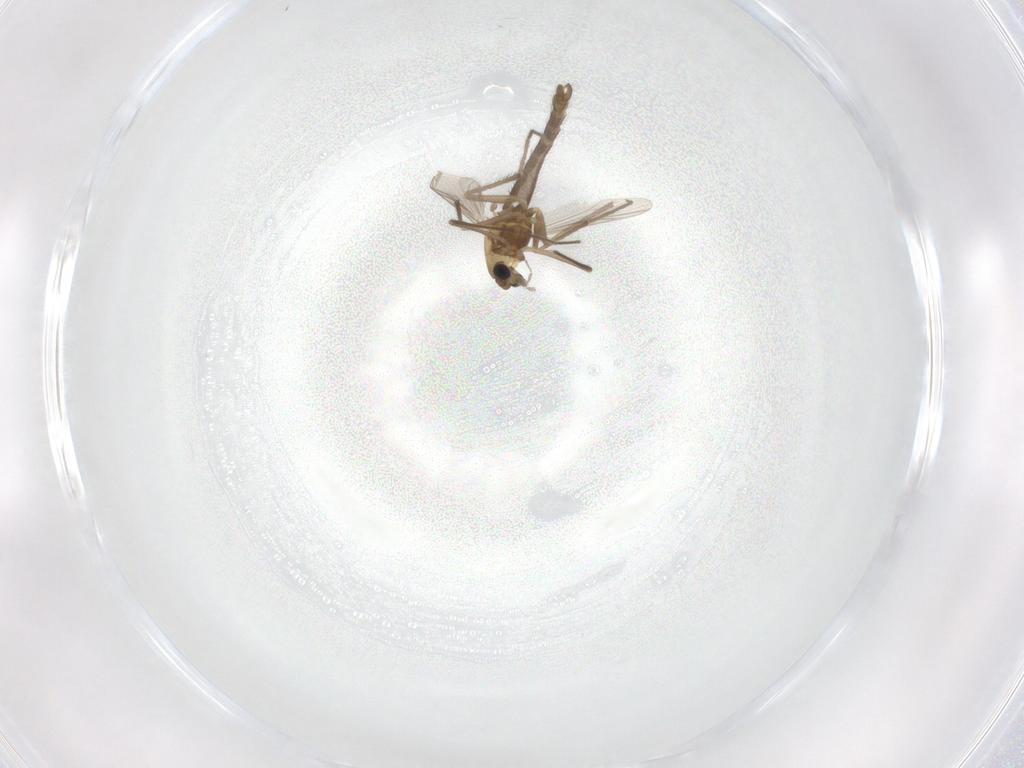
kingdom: Animalia
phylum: Arthropoda
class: Insecta
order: Diptera
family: Chironomidae
